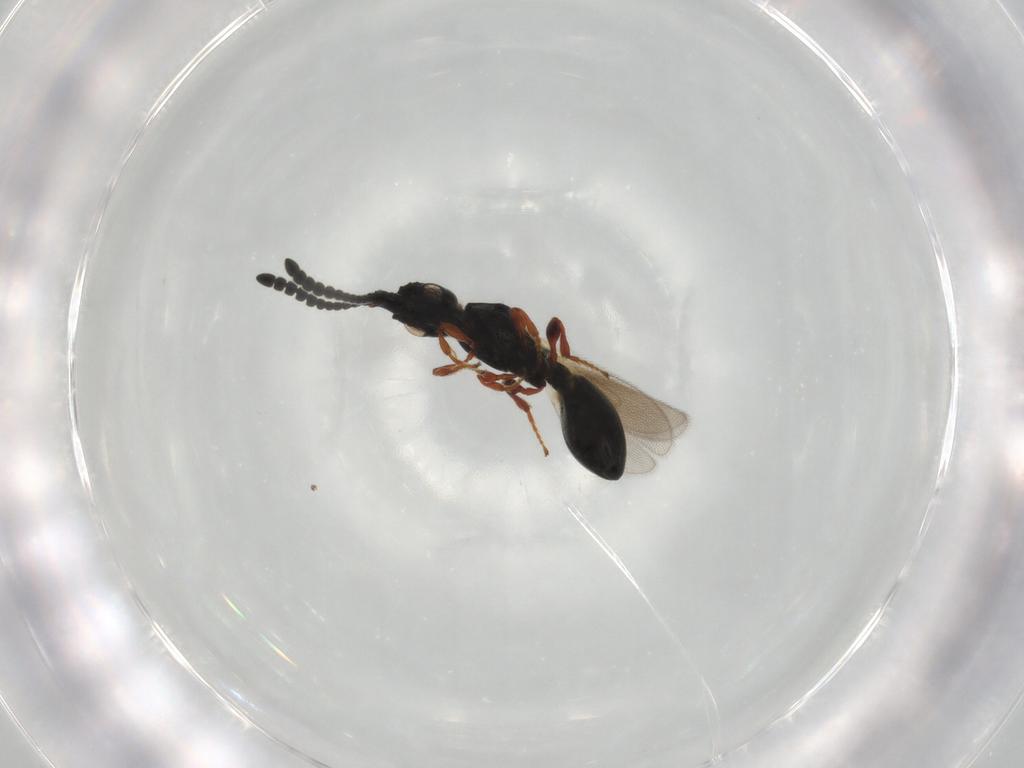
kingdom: Animalia
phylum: Arthropoda
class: Insecta
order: Hymenoptera
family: Diapriidae
